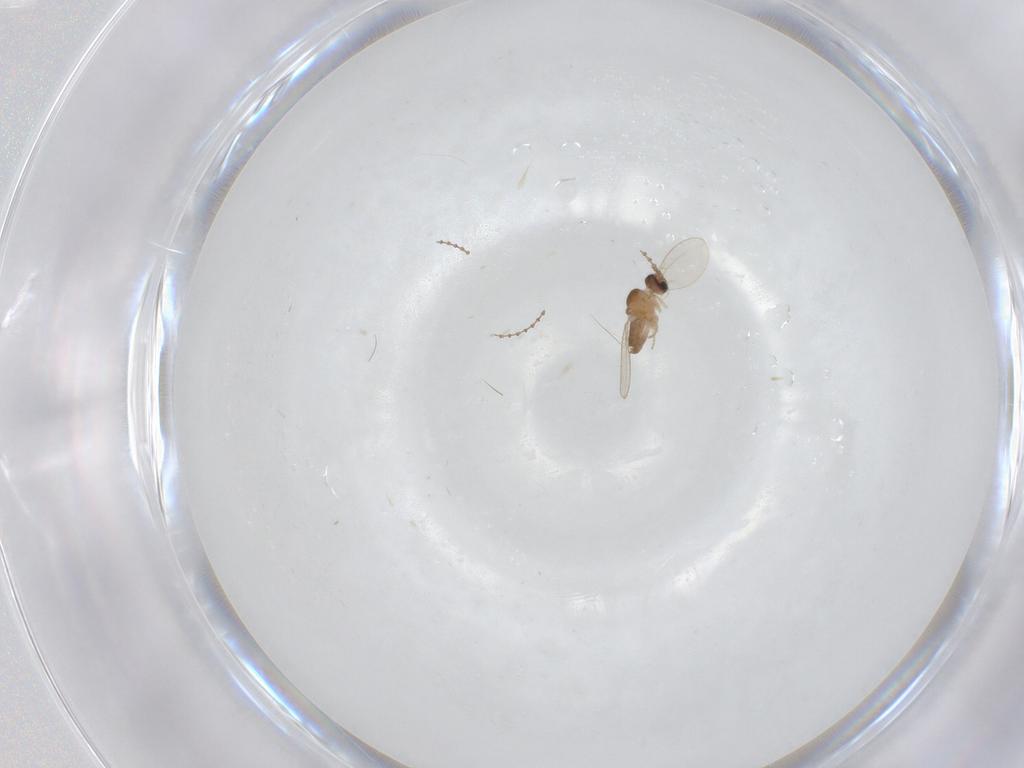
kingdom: Animalia
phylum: Arthropoda
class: Insecta
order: Diptera
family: Cecidomyiidae
